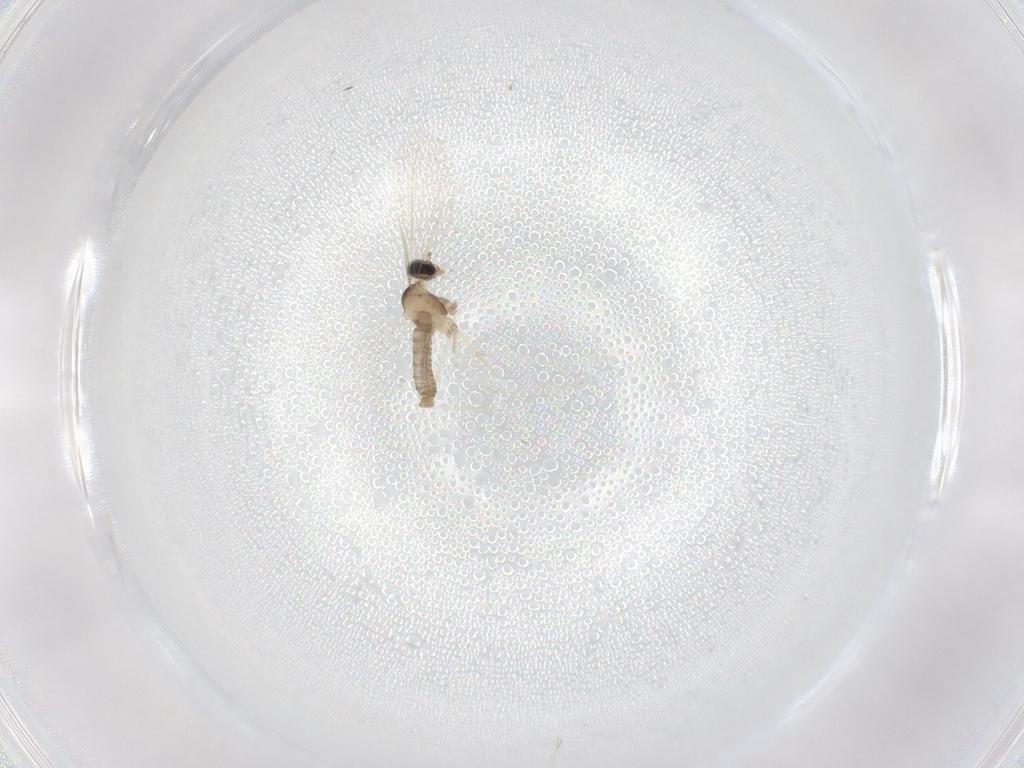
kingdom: Animalia
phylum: Arthropoda
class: Insecta
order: Diptera
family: Cecidomyiidae
